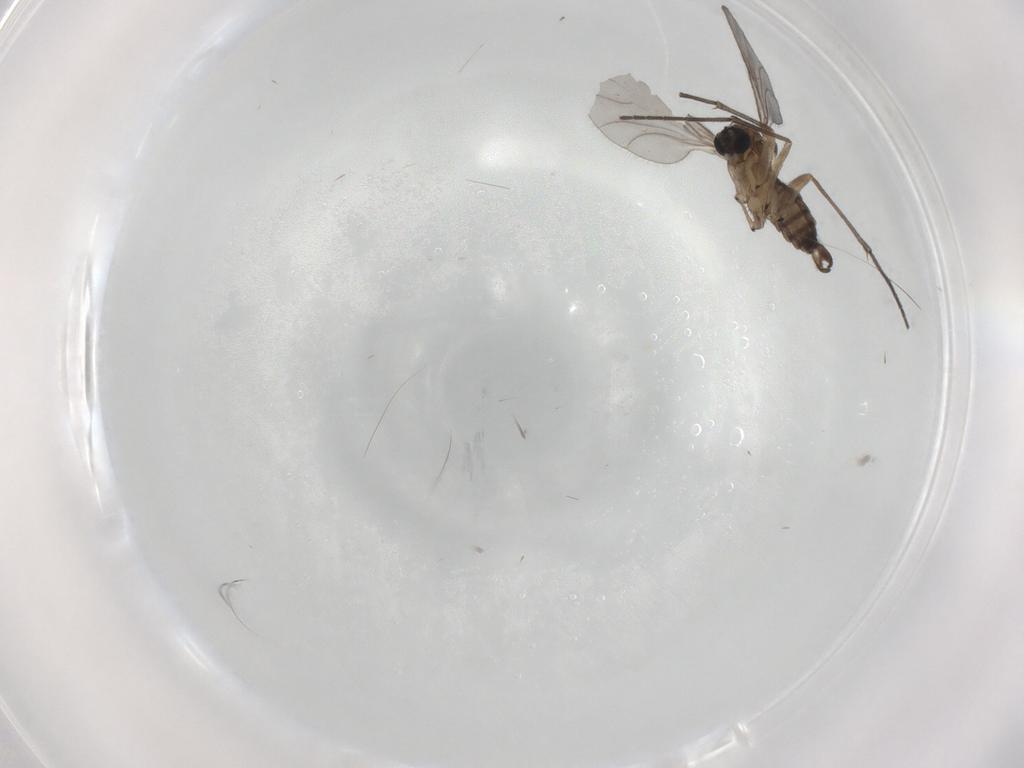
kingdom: Animalia
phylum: Arthropoda
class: Insecta
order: Diptera
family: Sciaridae
